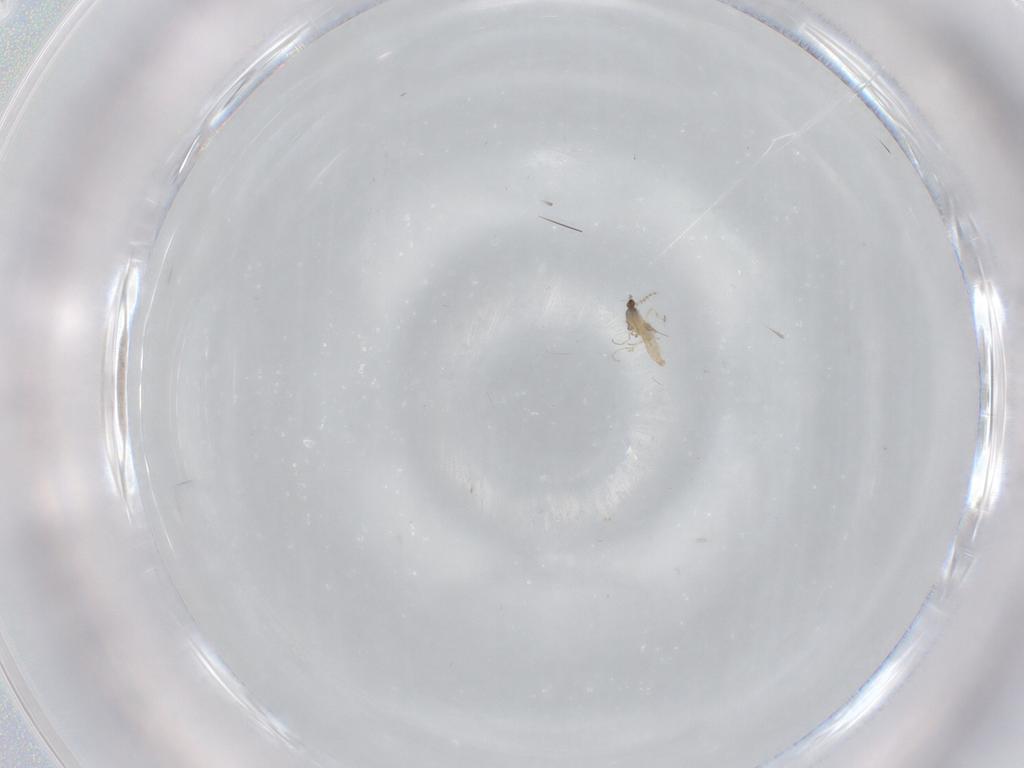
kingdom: Animalia
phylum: Arthropoda
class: Insecta
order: Diptera
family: Cecidomyiidae
